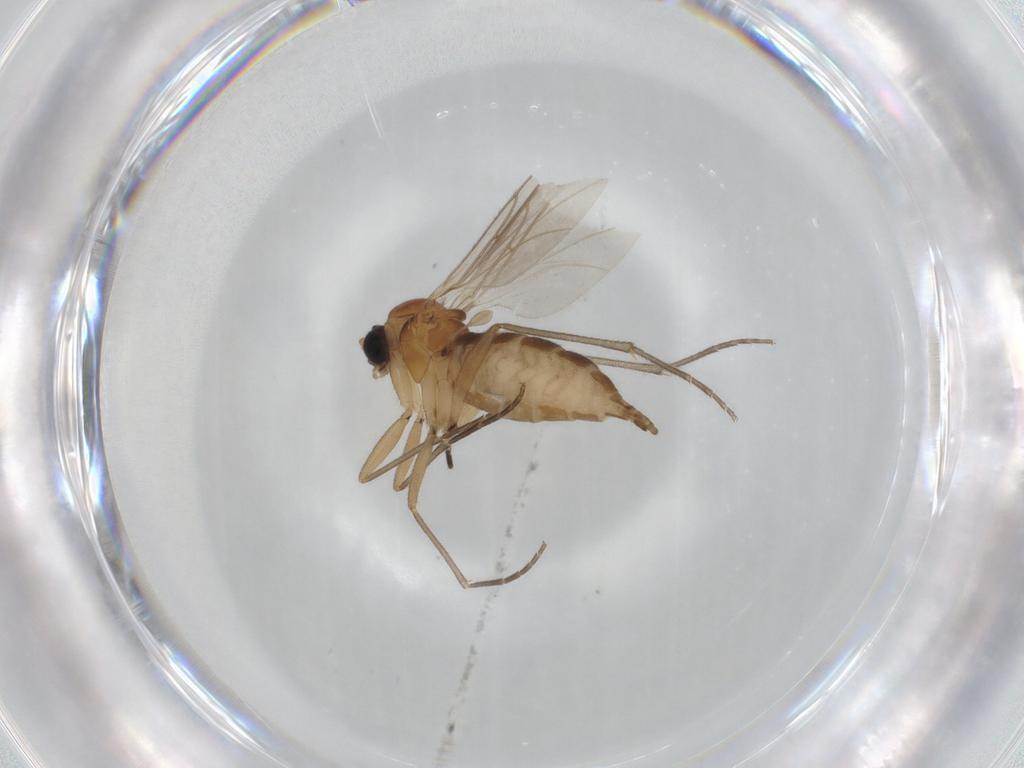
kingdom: Animalia
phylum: Arthropoda
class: Insecta
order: Diptera
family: Sciaridae
